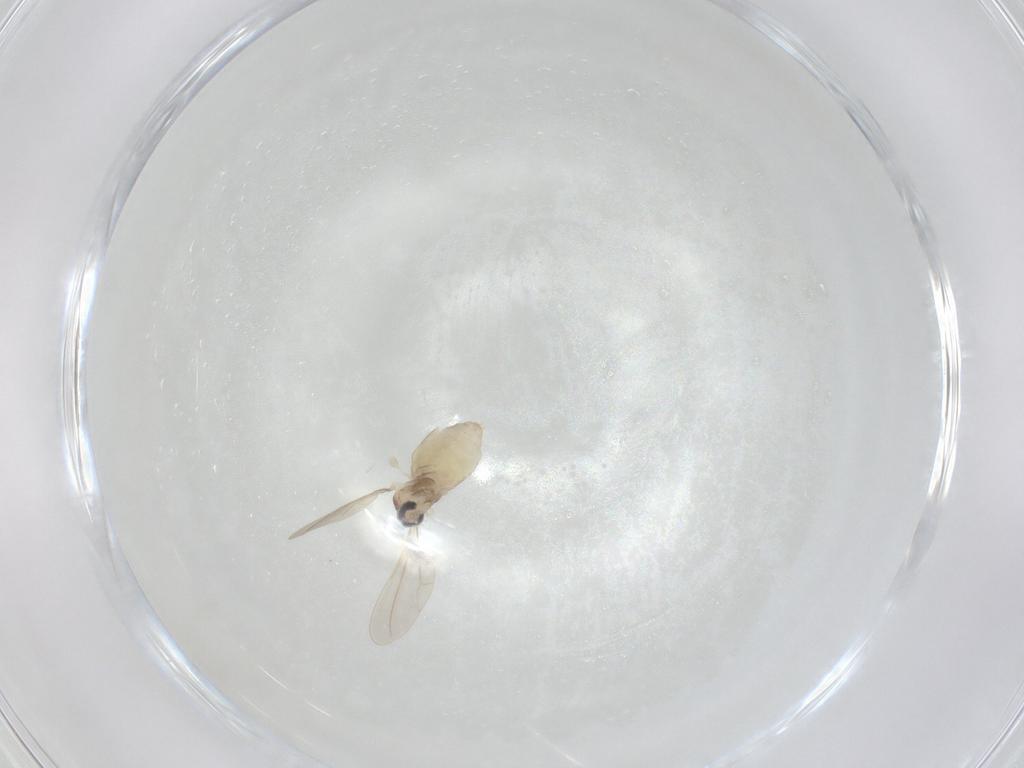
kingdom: Animalia
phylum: Arthropoda
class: Insecta
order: Diptera
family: Cecidomyiidae
